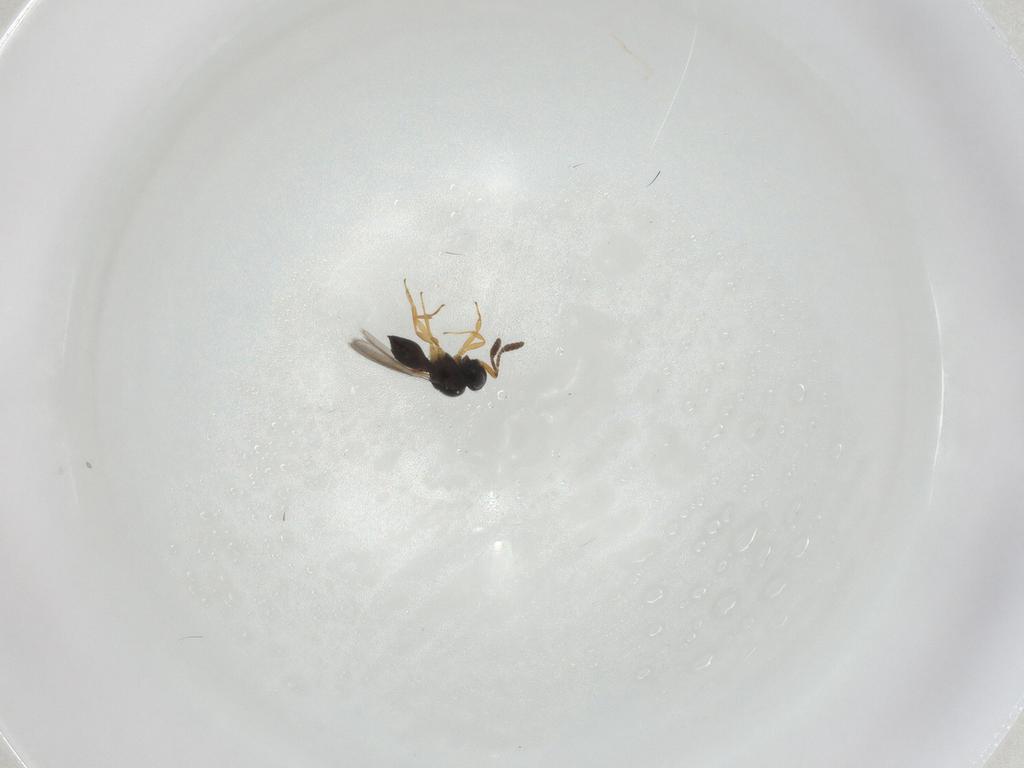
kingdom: Animalia
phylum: Arthropoda
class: Insecta
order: Hymenoptera
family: Scelionidae
